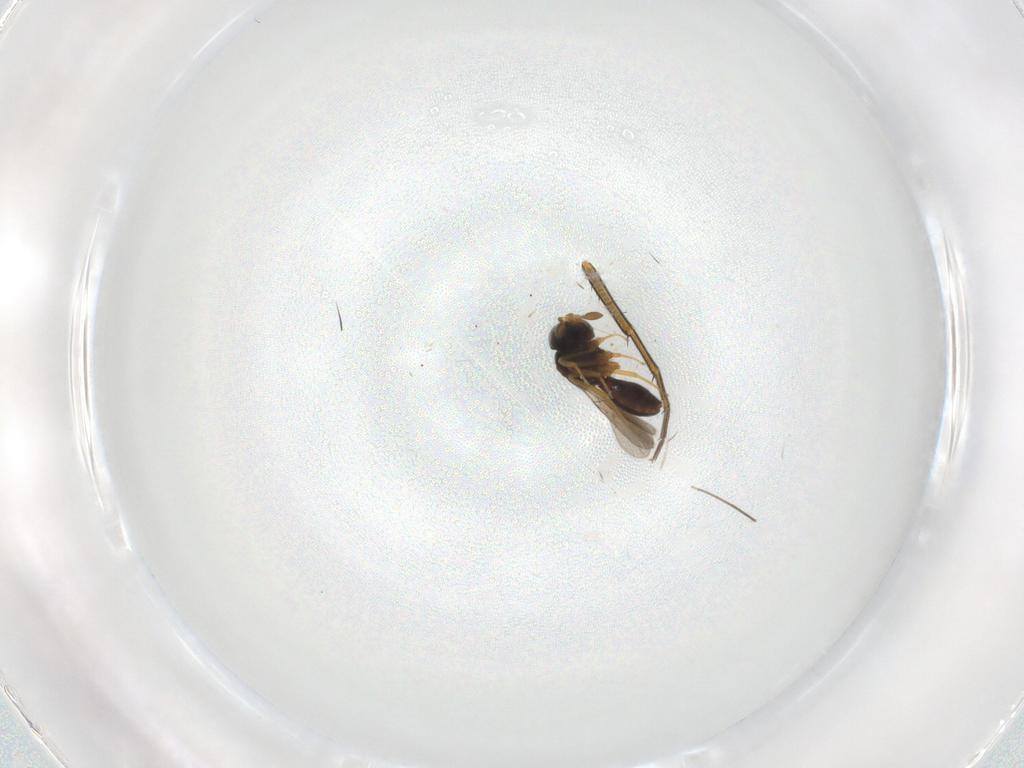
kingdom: Animalia
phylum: Arthropoda
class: Insecta
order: Hymenoptera
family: Scelionidae
